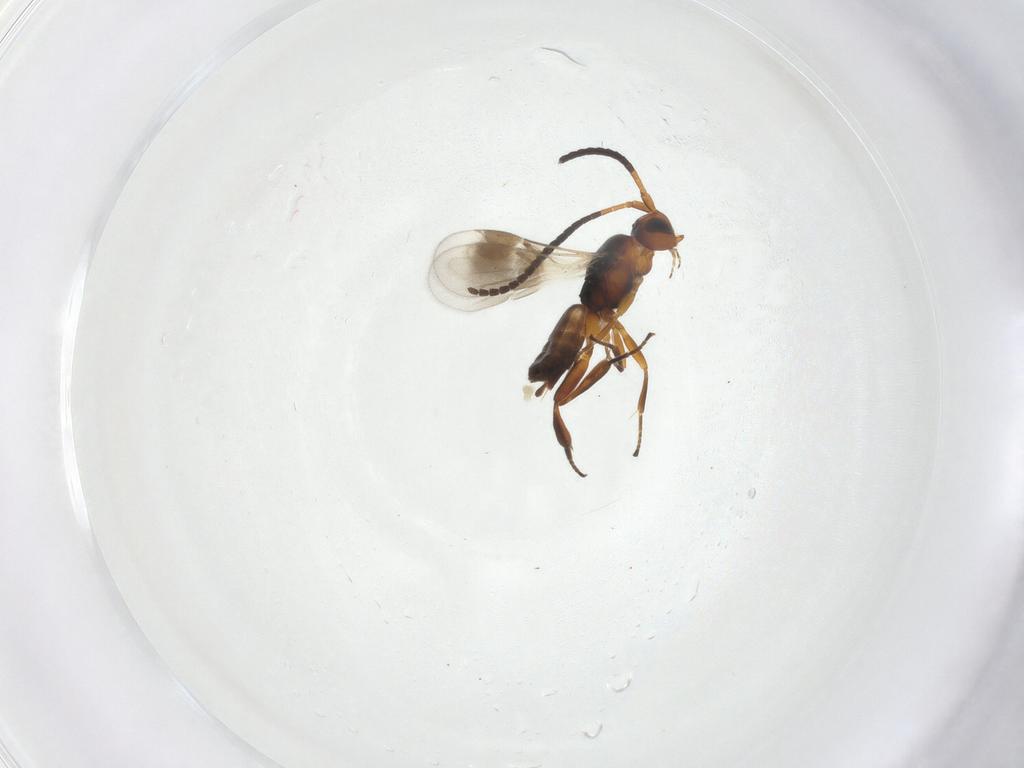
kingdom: Animalia
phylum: Arthropoda
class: Insecta
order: Hymenoptera
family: Braconidae
